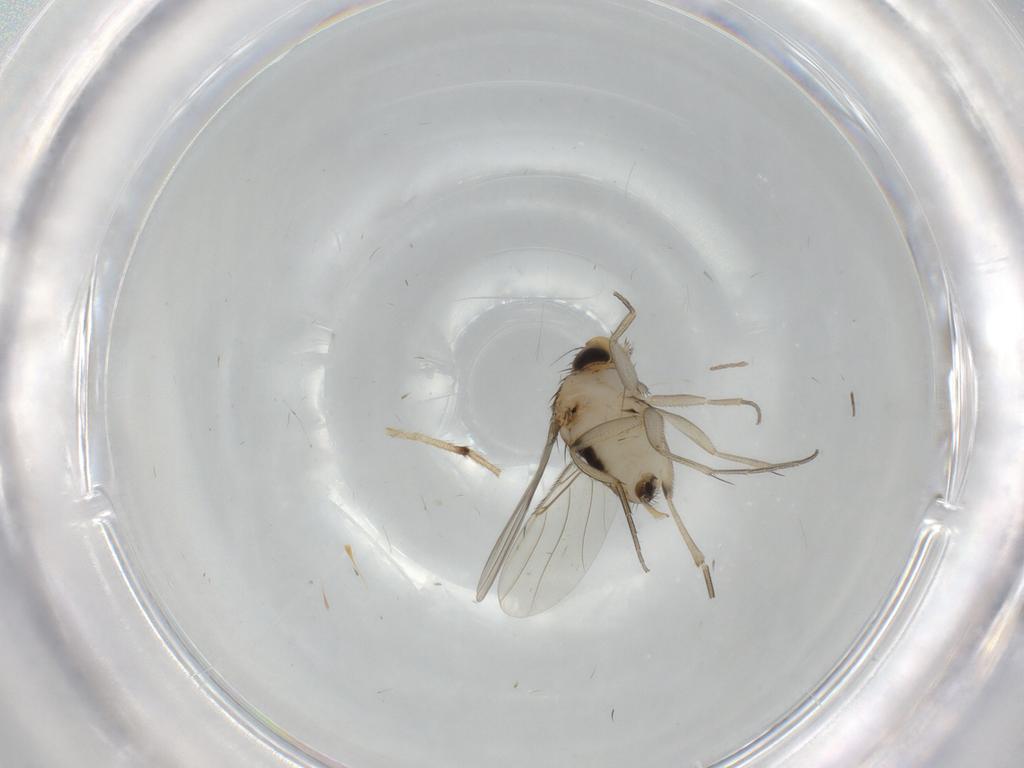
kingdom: Animalia
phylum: Arthropoda
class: Insecta
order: Diptera
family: Phoridae
